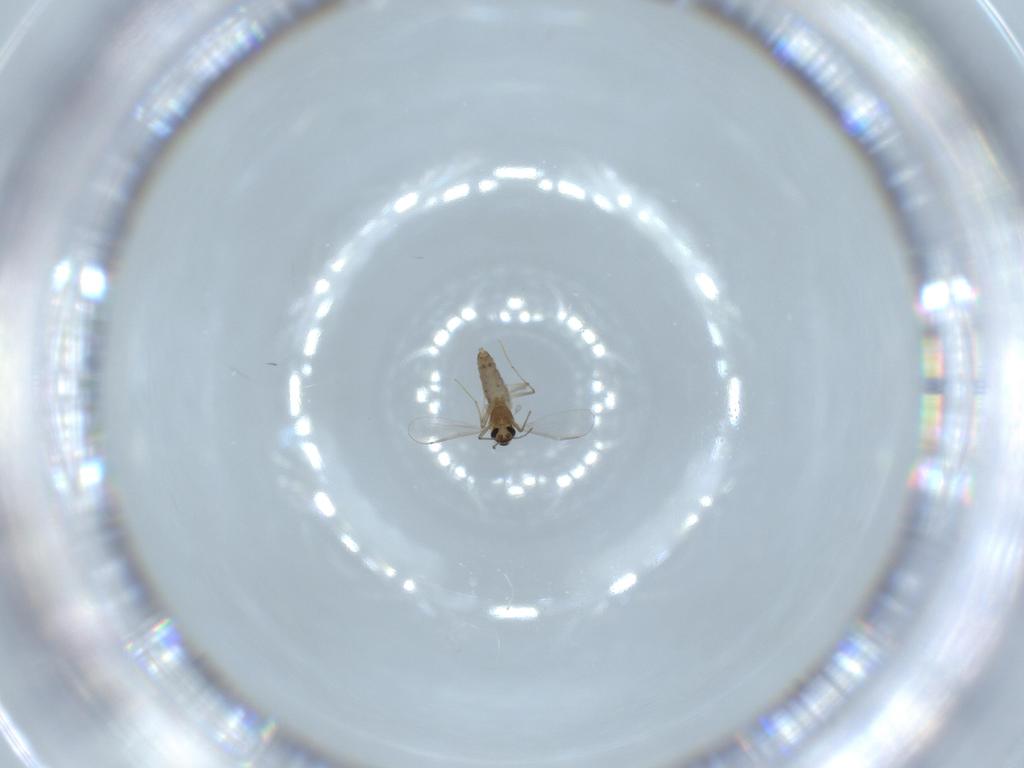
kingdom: Animalia
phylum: Arthropoda
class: Insecta
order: Diptera
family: Chironomidae
